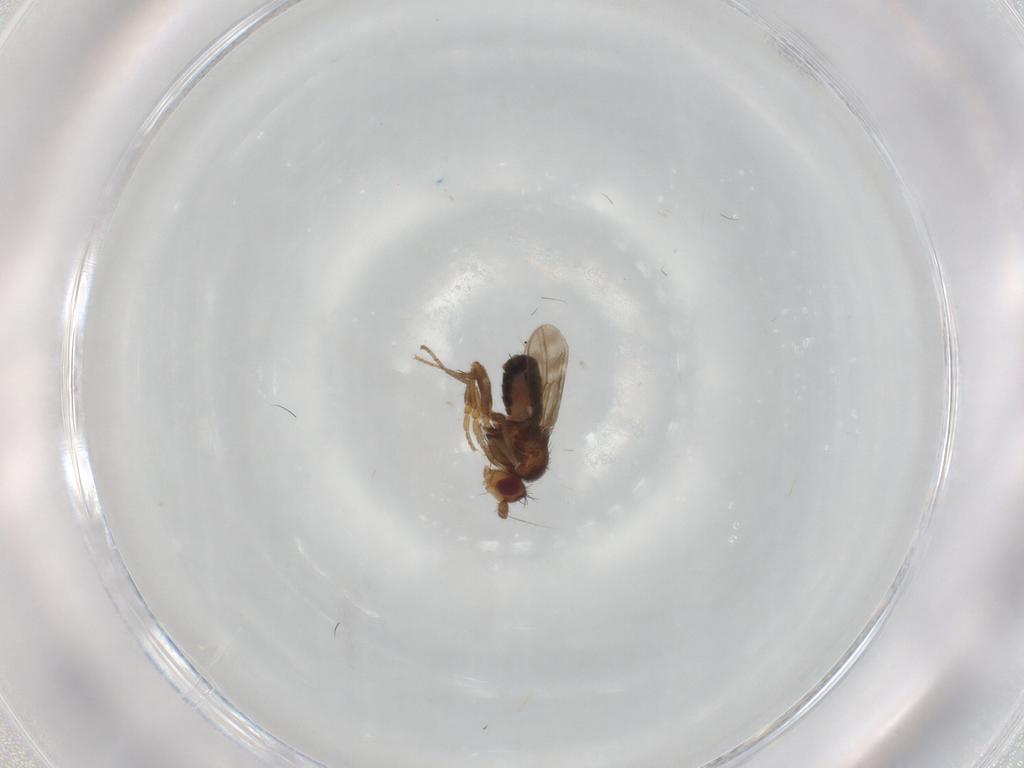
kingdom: Animalia
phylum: Arthropoda
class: Insecta
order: Diptera
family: Sphaeroceridae
